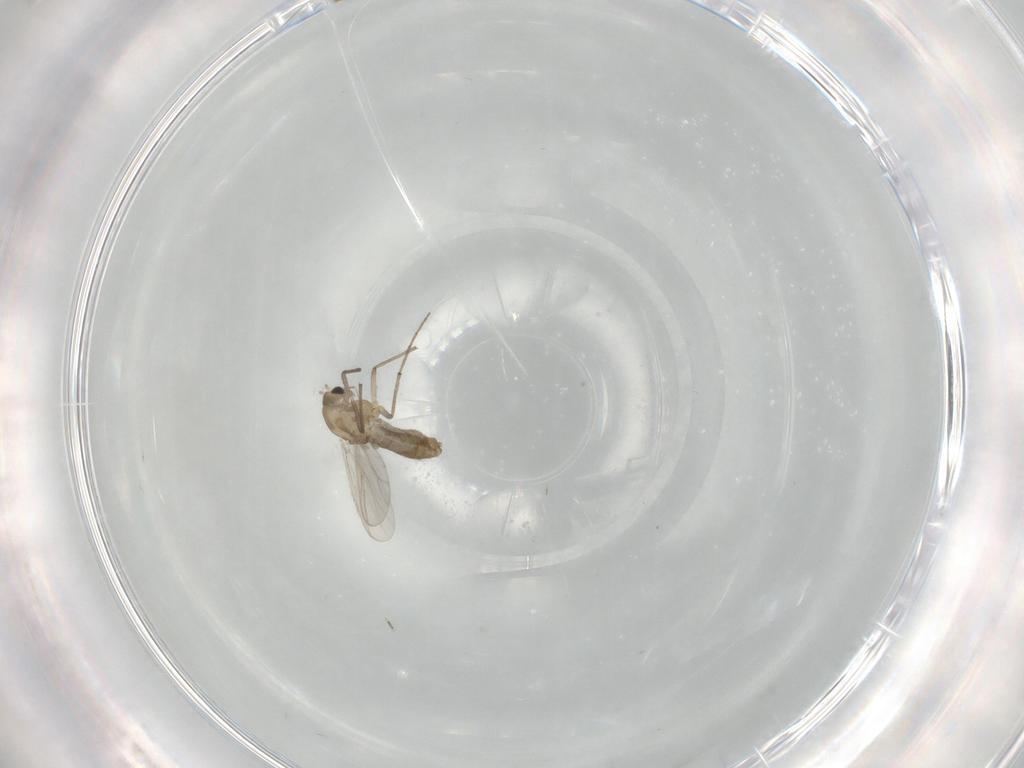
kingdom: Animalia
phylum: Arthropoda
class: Insecta
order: Diptera
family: Chironomidae
